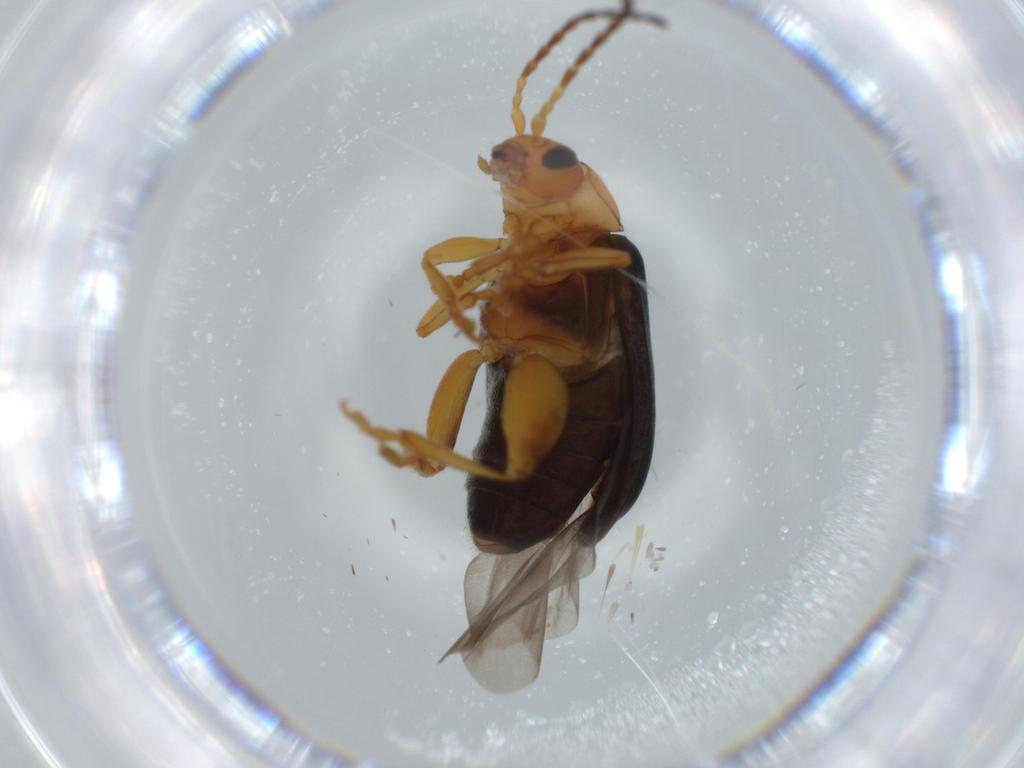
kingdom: Animalia
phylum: Arthropoda
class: Insecta
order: Coleoptera
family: Chrysomelidae
